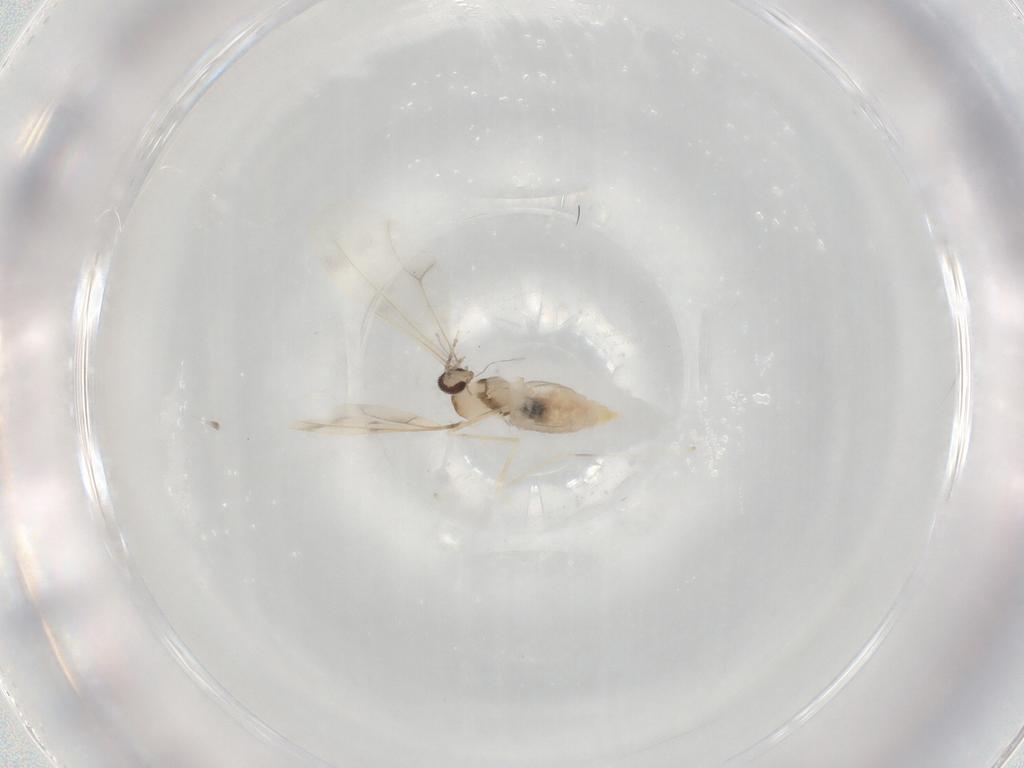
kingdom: Animalia
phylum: Arthropoda
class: Insecta
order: Diptera
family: Cecidomyiidae
